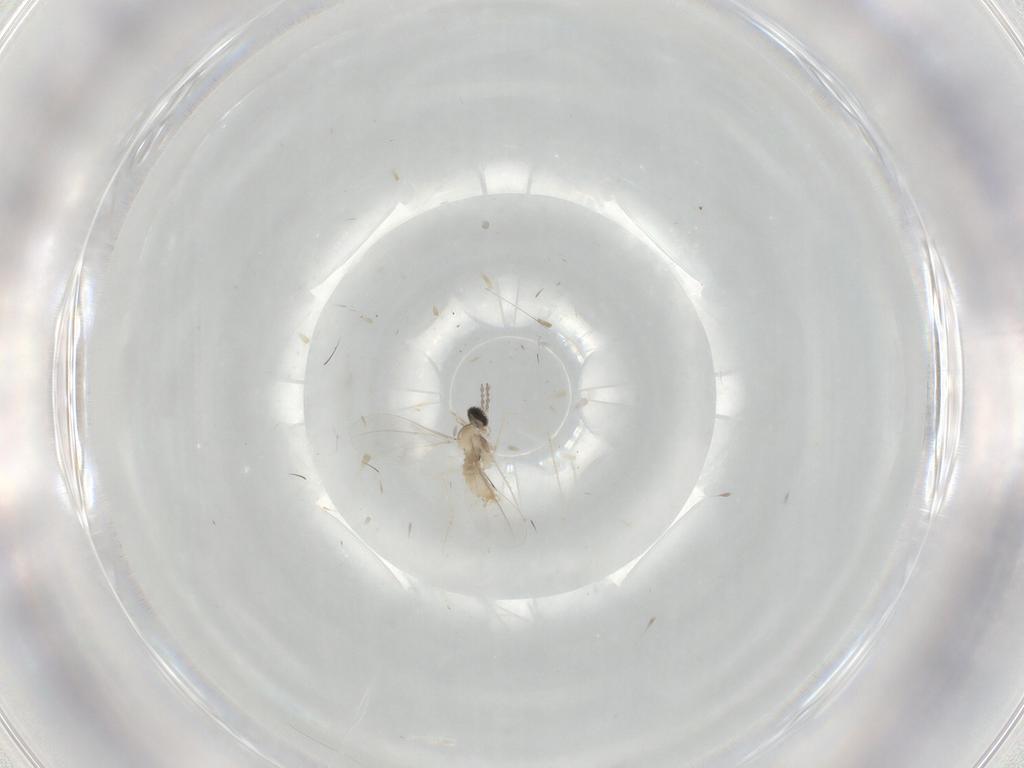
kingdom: Animalia
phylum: Arthropoda
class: Insecta
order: Diptera
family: Cecidomyiidae
